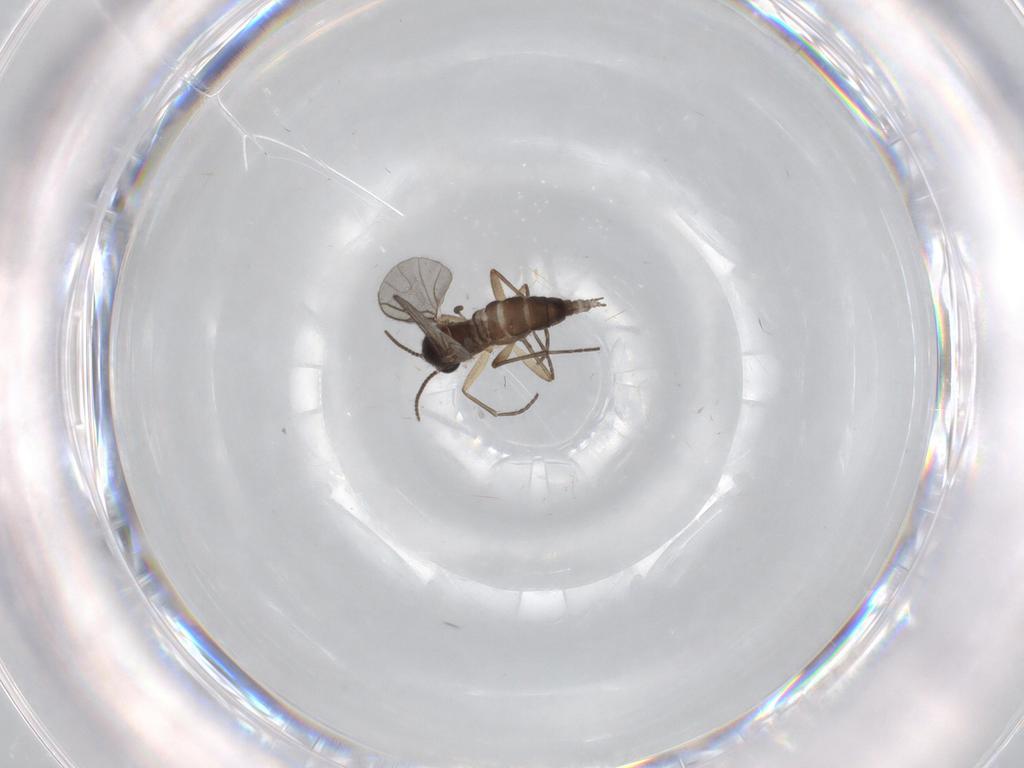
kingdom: Animalia
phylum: Arthropoda
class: Insecta
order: Diptera
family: Sciaridae
